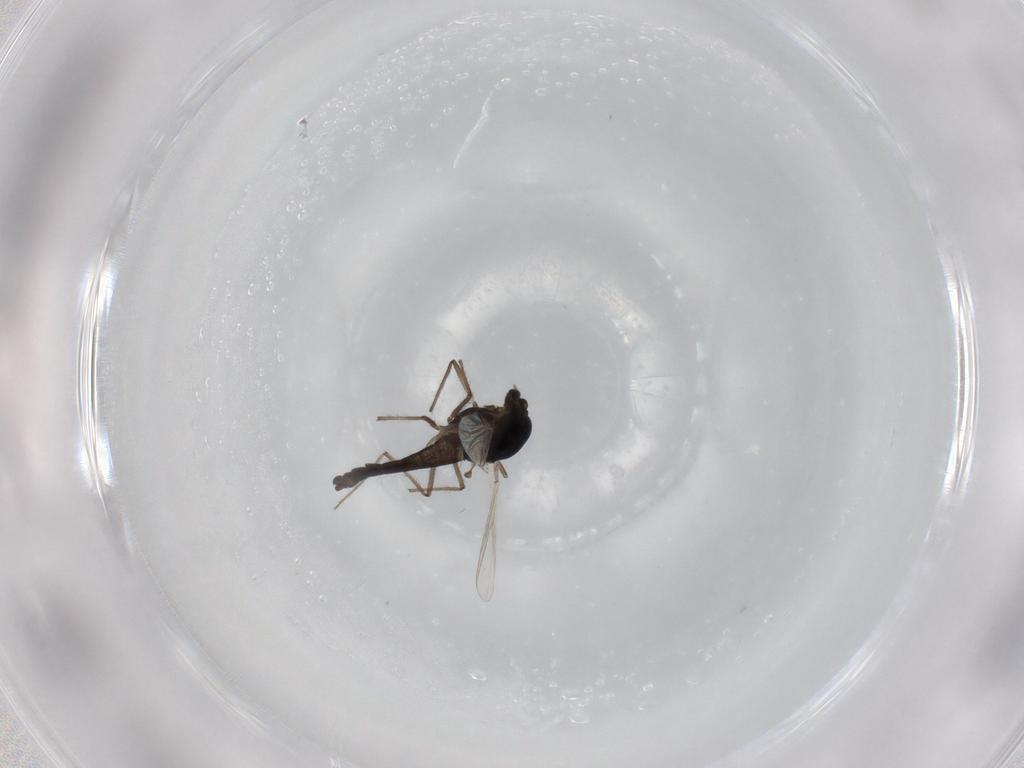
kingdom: Animalia
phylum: Arthropoda
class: Insecta
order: Diptera
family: Chironomidae
